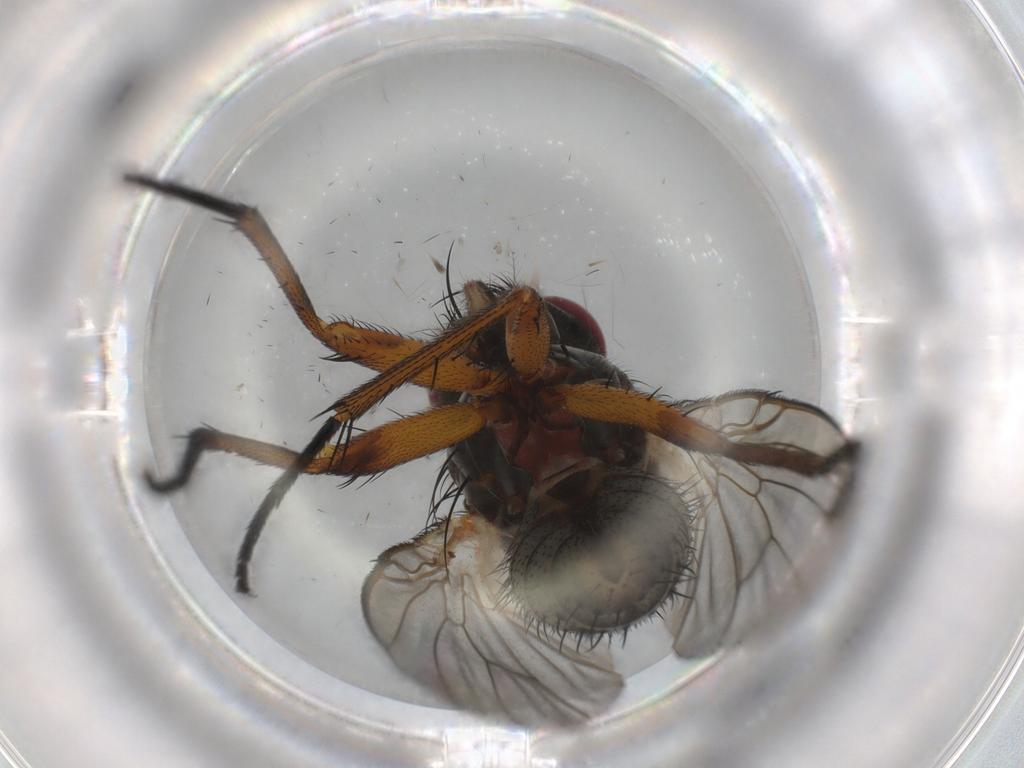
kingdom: Animalia
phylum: Arthropoda
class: Insecta
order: Diptera
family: Muscidae
